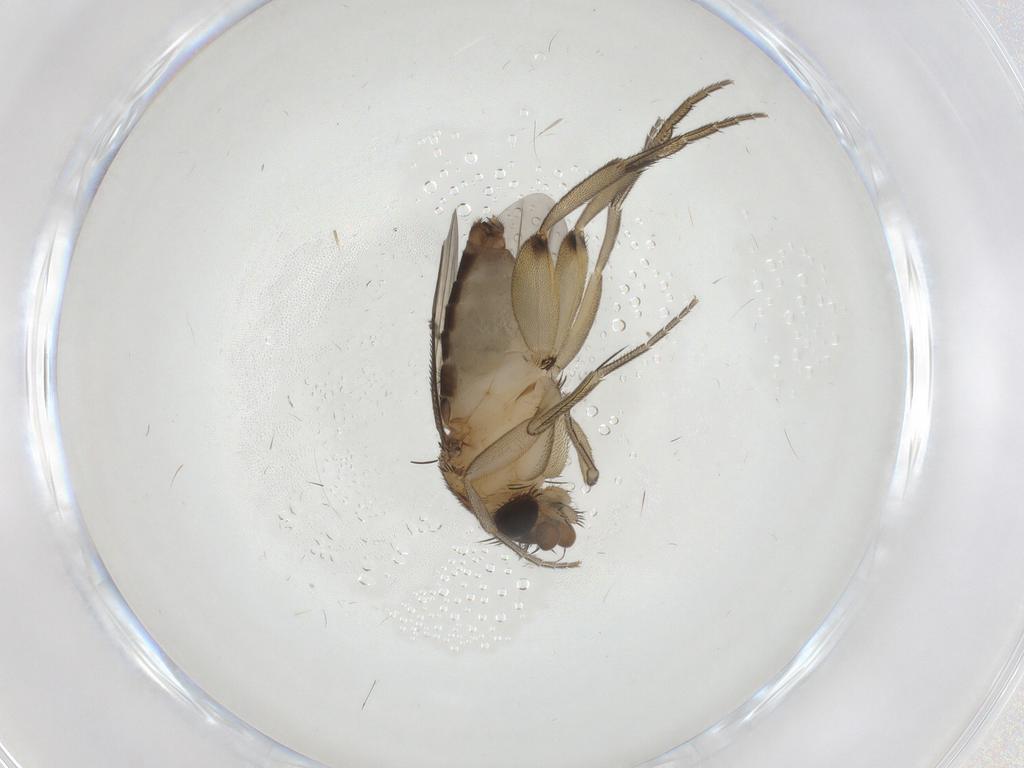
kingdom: Animalia
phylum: Arthropoda
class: Insecta
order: Diptera
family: Phoridae
